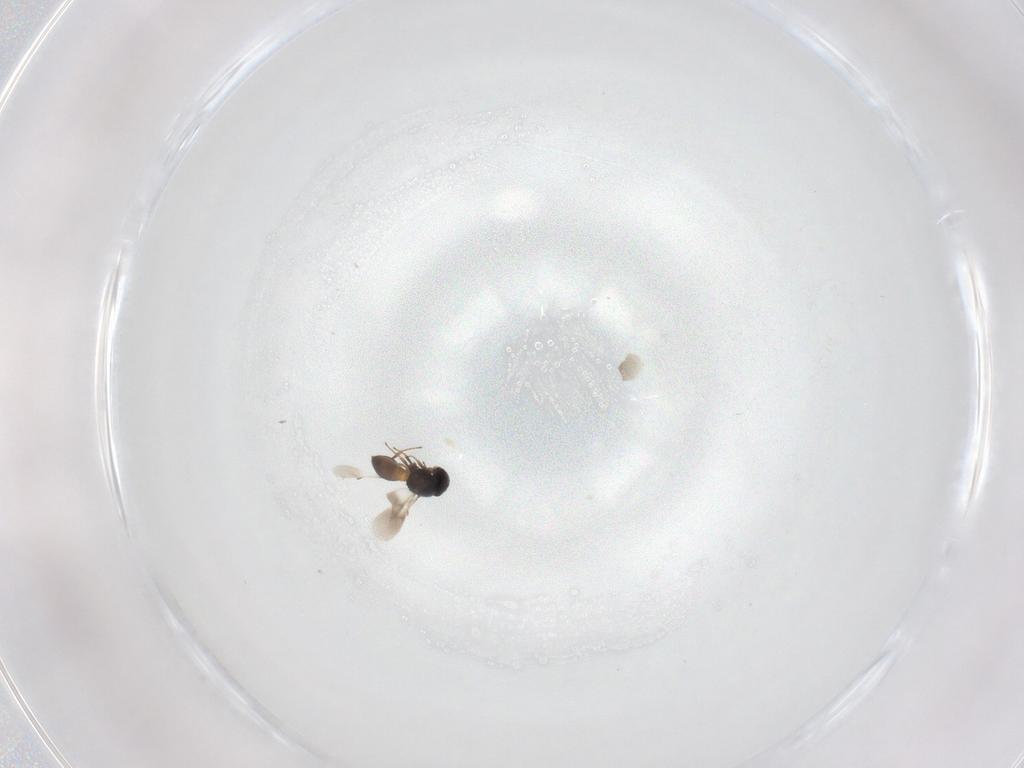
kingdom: Animalia
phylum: Arthropoda
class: Insecta
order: Hymenoptera
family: Scelionidae
